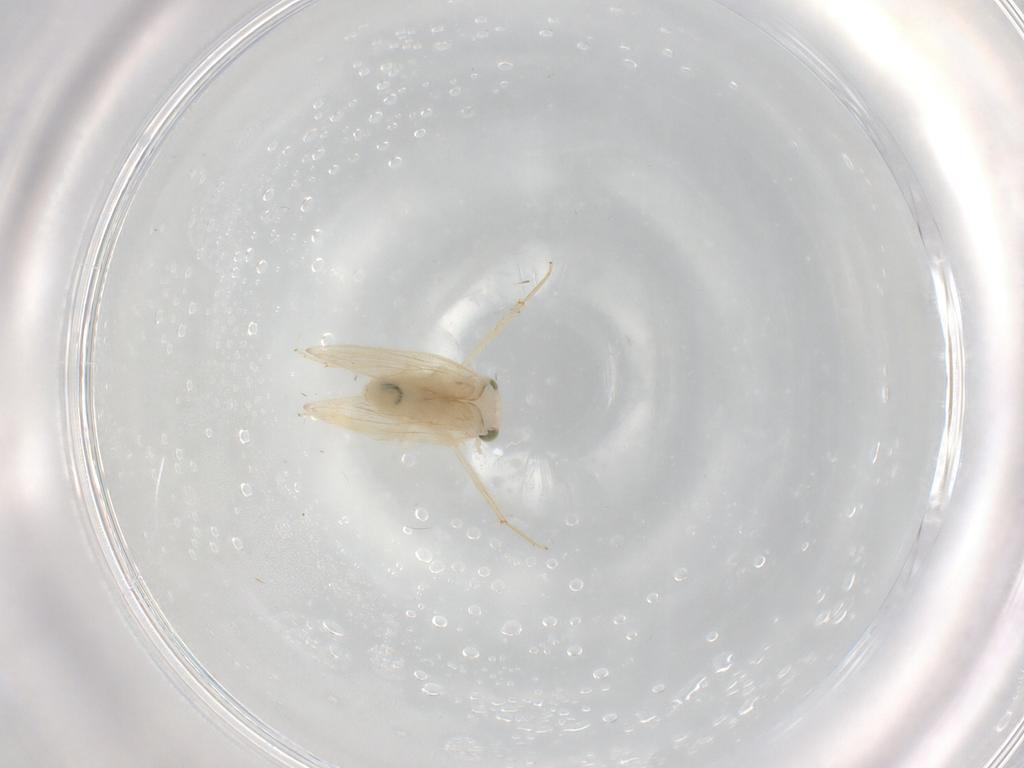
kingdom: Animalia
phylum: Arthropoda
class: Insecta
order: Psocodea
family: Lepidopsocidae
